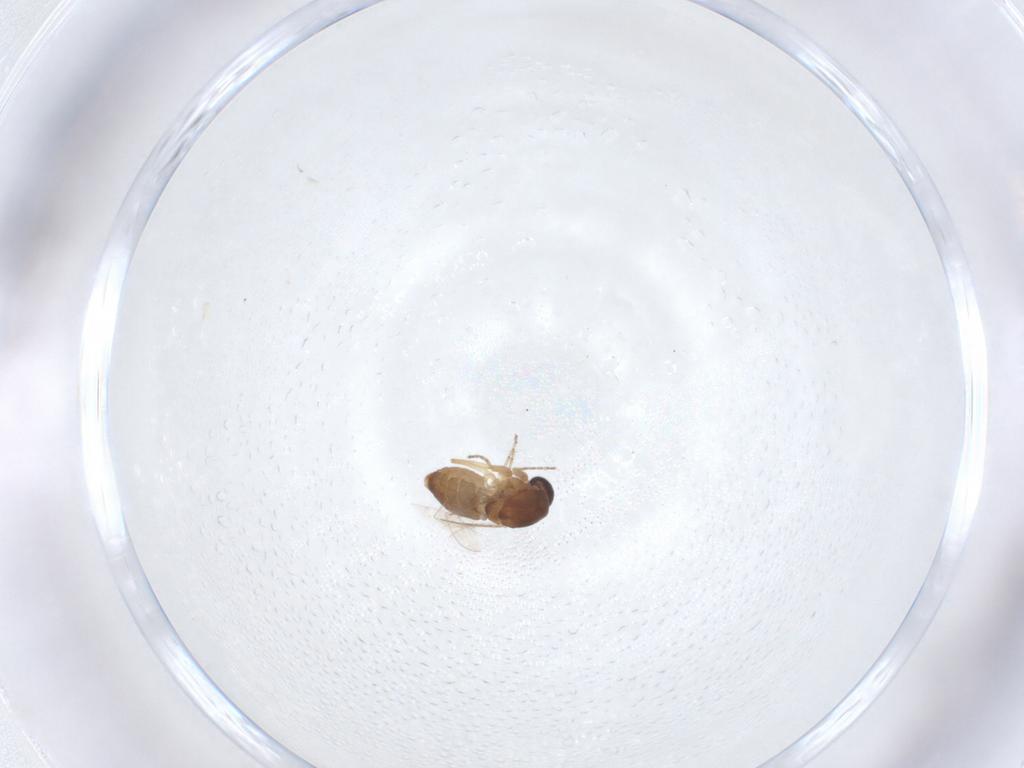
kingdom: Animalia
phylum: Arthropoda
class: Insecta
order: Diptera
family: Ceratopogonidae
